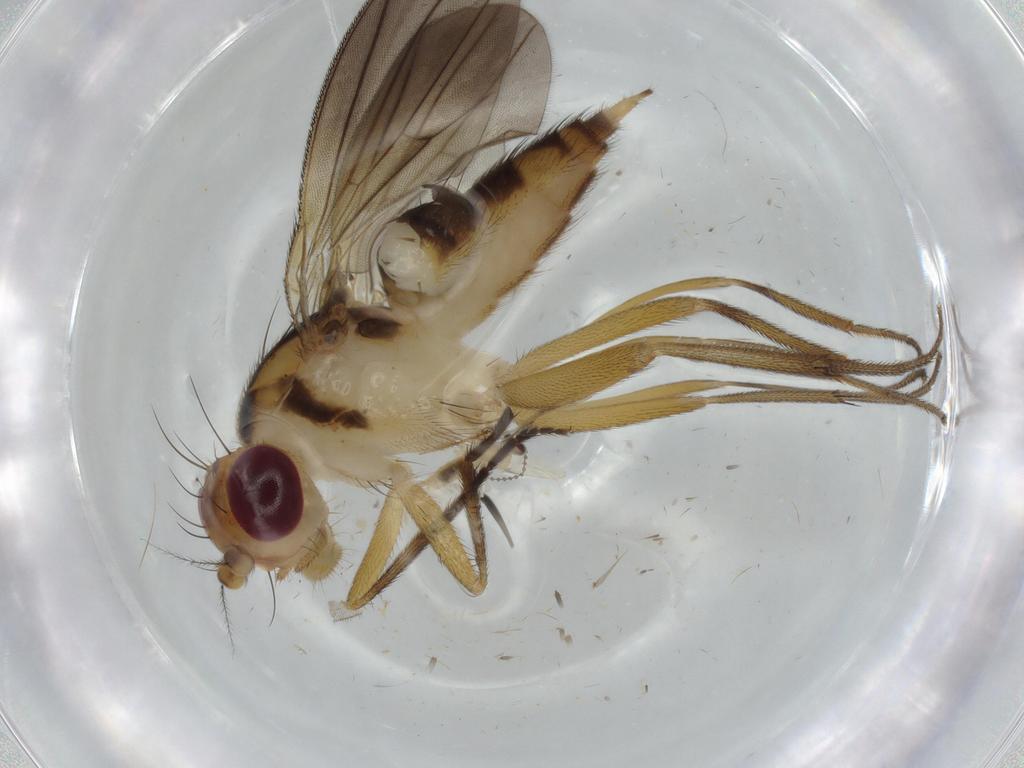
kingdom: Animalia
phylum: Arthropoda
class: Insecta
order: Diptera
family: Clusiidae
